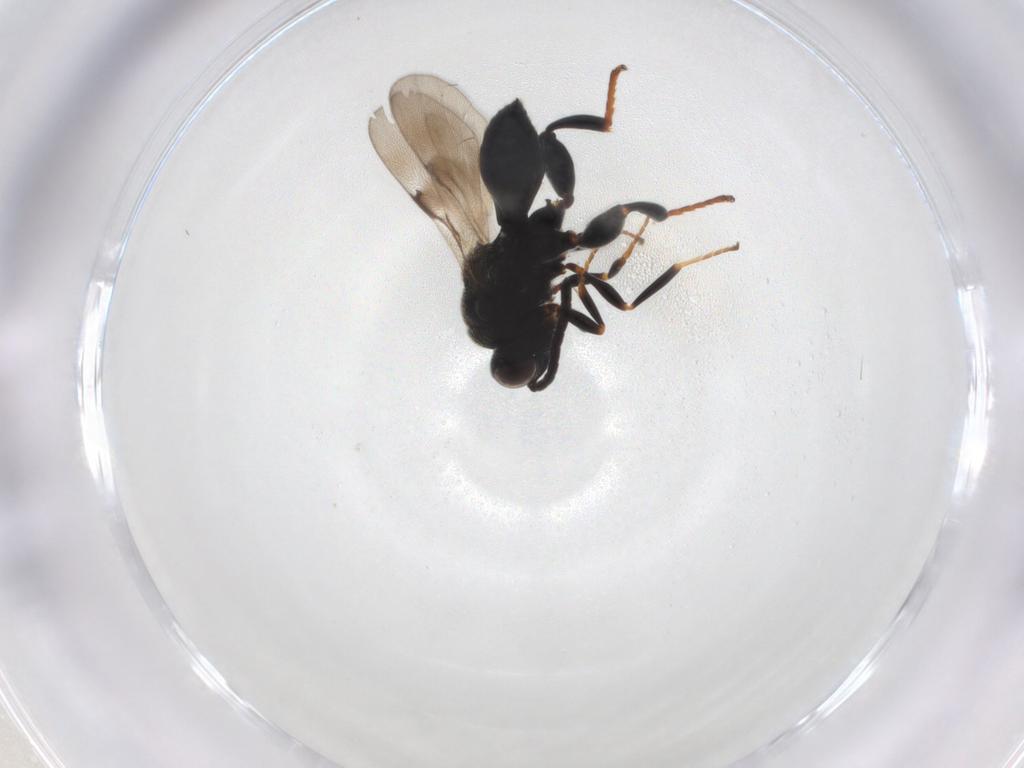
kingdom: Animalia
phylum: Arthropoda
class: Insecta
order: Hymenoptera
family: Chalcididae
